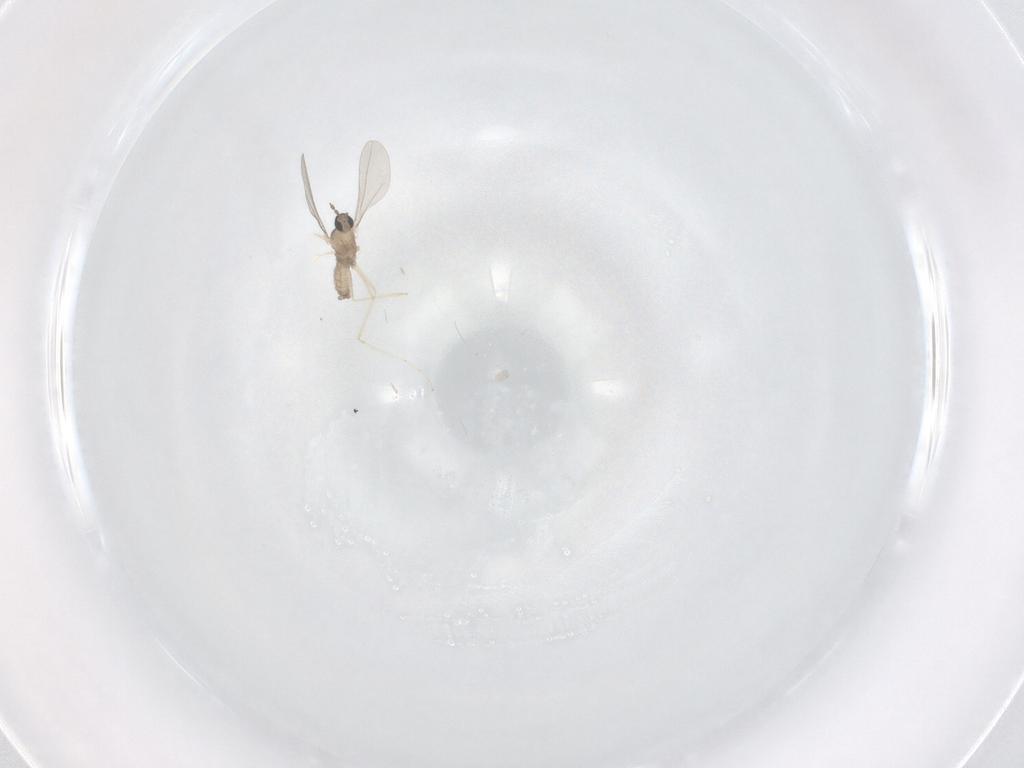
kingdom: Animalia
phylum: Arthropoda
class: Insecta
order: Diptera
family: Cecidomyiidae
